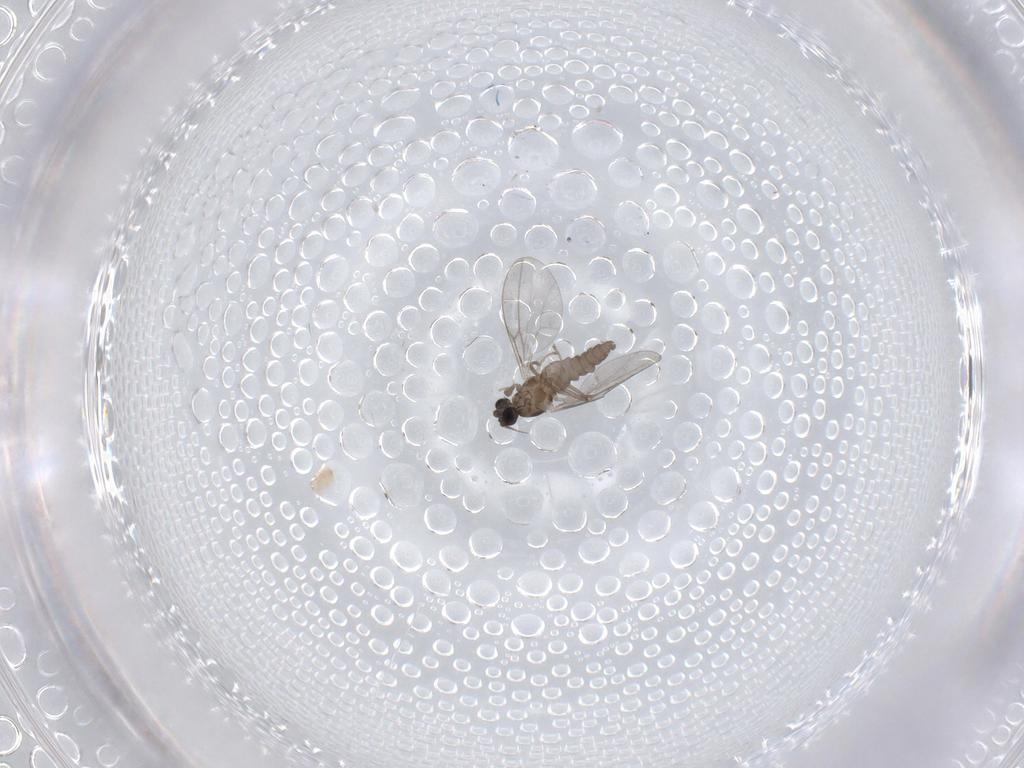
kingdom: Animalia
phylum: Arthropoda
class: Insecta
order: Diptera
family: Cecidomyiidae
